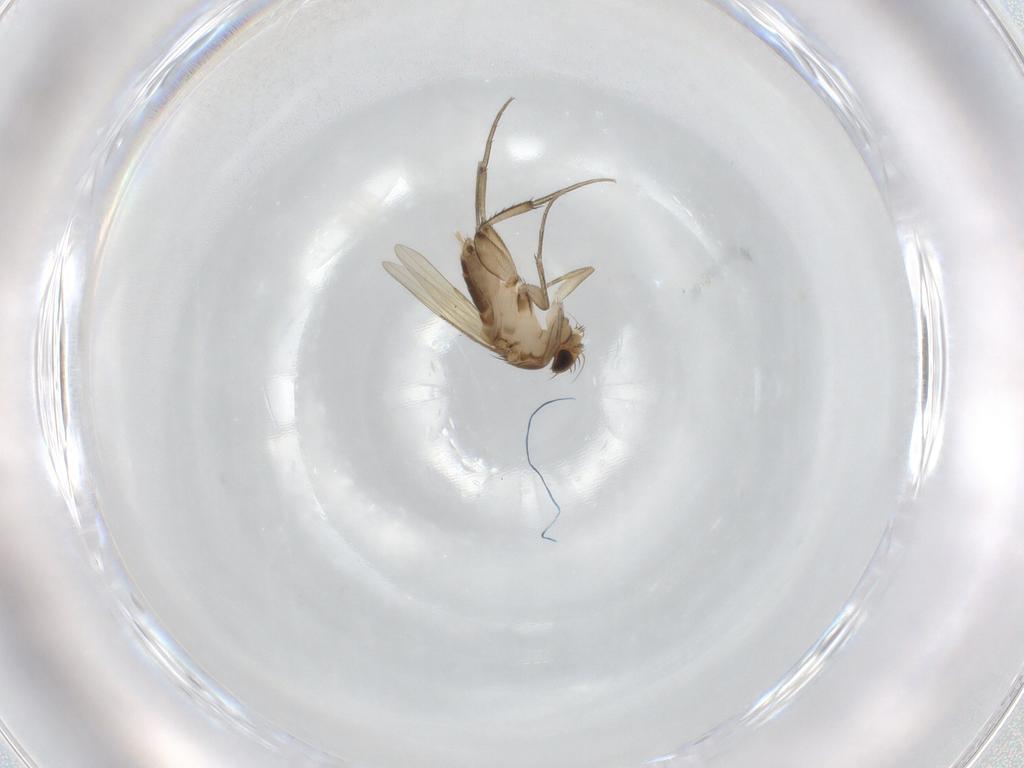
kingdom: Animalia
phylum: Arthropoda
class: Insecta
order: Diptera
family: Phoridae
